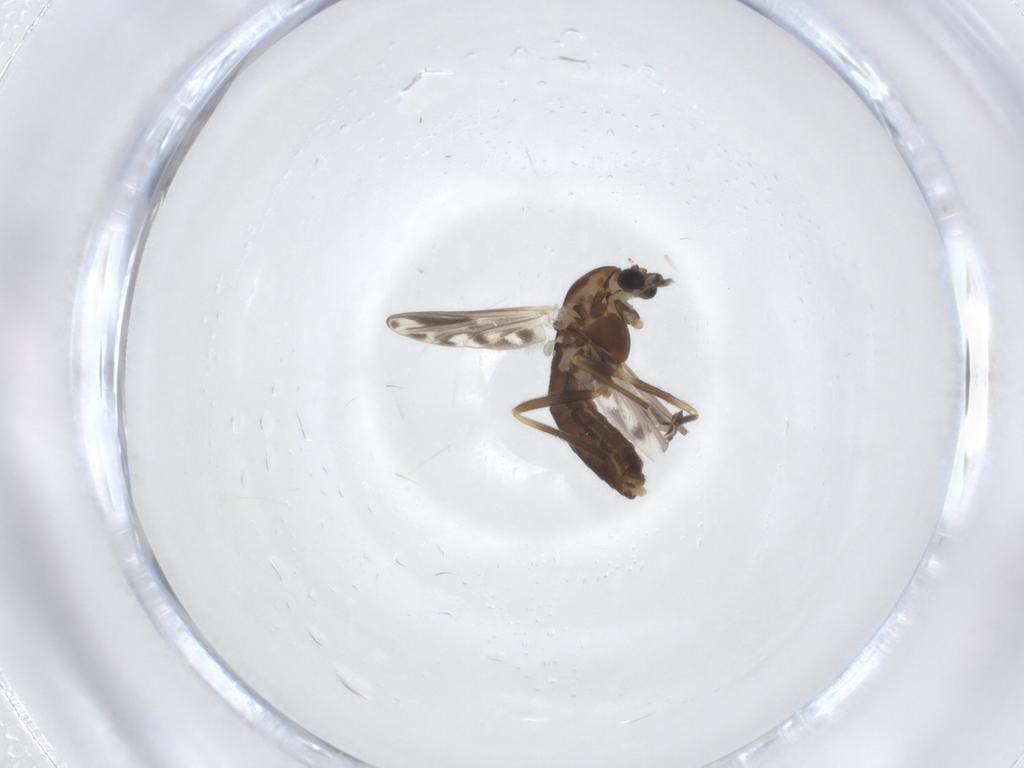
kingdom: Animalia
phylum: Arthropoda
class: Insecta
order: Diptera
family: Chironomidae
